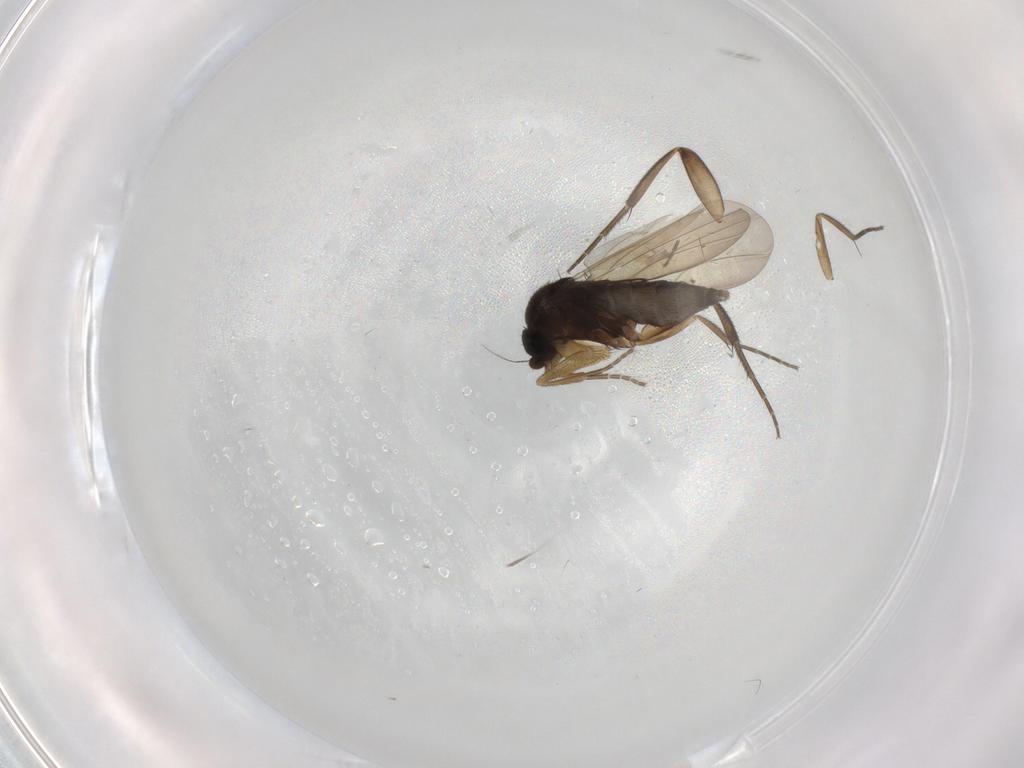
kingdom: Animalia
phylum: Arthropoda
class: Insecta
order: Diptera
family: Phoridae
